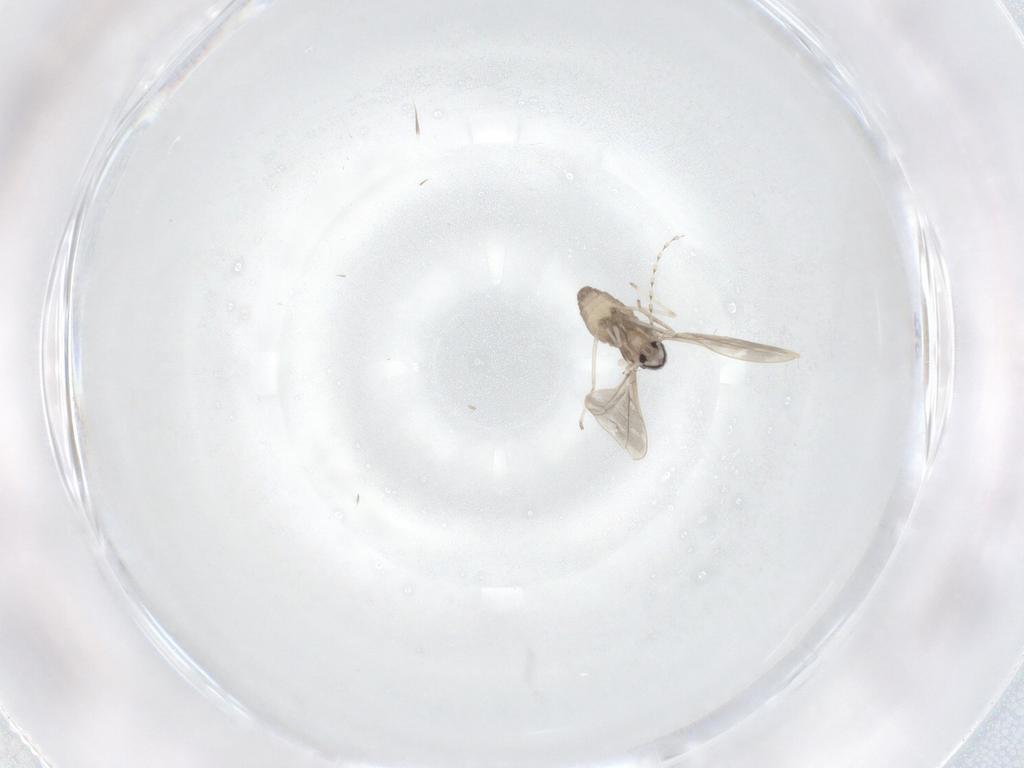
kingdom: Animalia
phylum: Arthropoda
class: Insecta
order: Diptera
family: Cecidomyiidae
